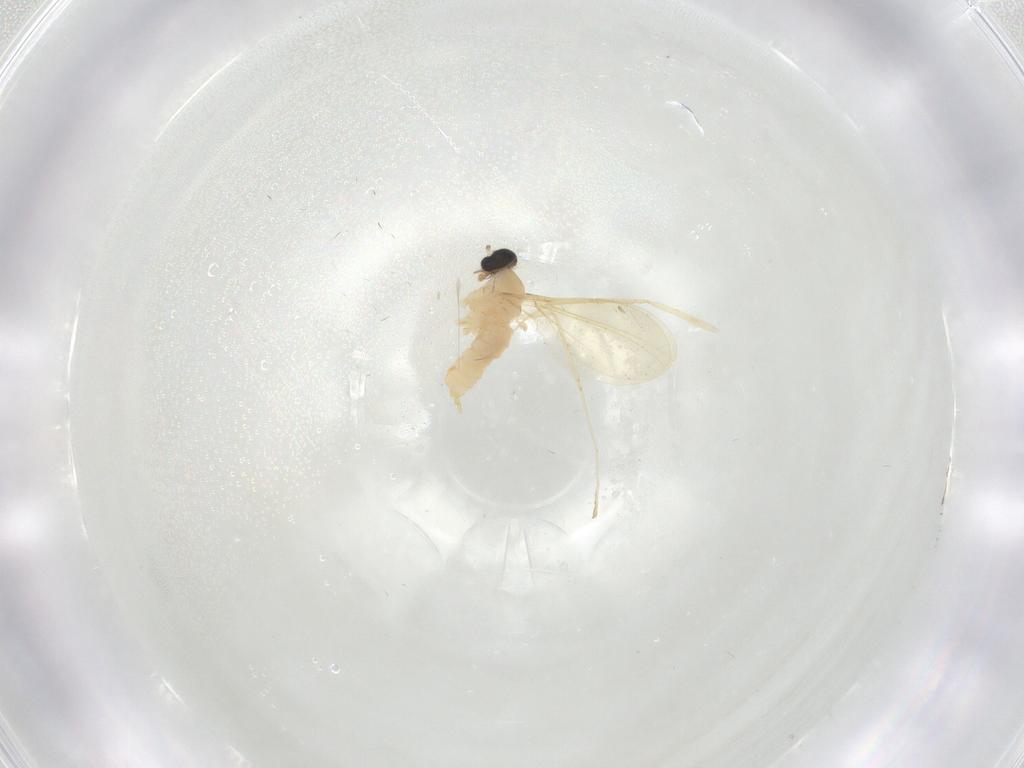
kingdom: Animalia
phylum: Arthropoda
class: Insecta
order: Diptera
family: Cecidomyiidae
